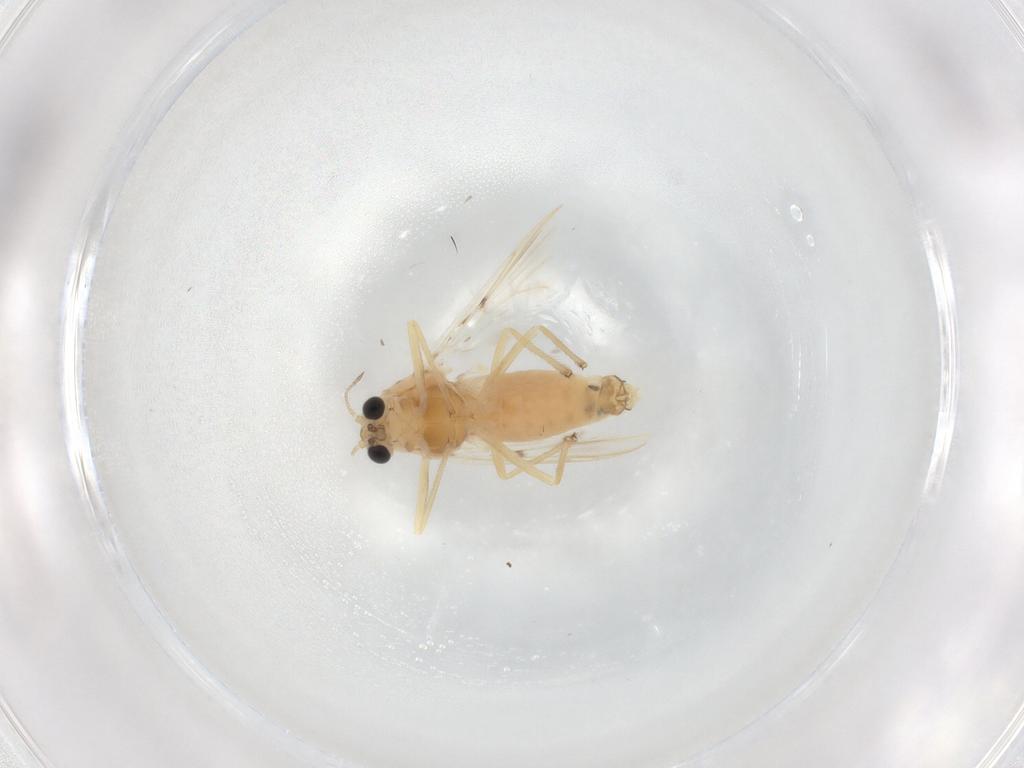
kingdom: Animalia
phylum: Arthropoda
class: Insecta
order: Diptera
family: Chironomidae
